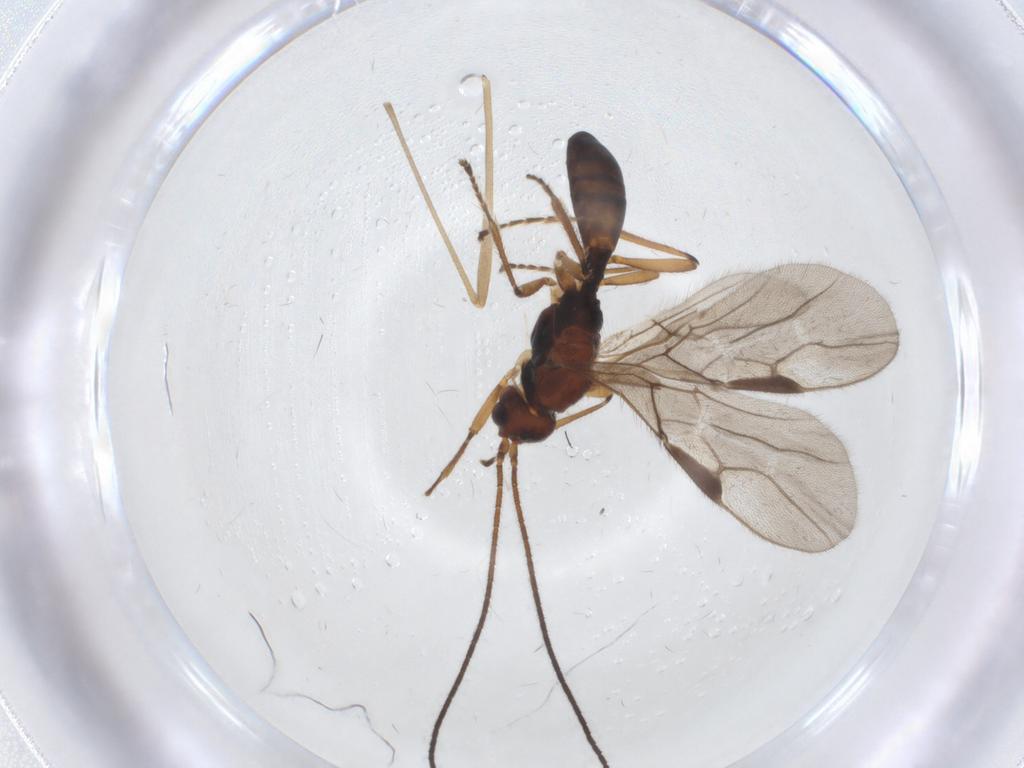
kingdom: Animalia
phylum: Arthropoda
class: Insecta
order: Hymenoptera
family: Braconidae
